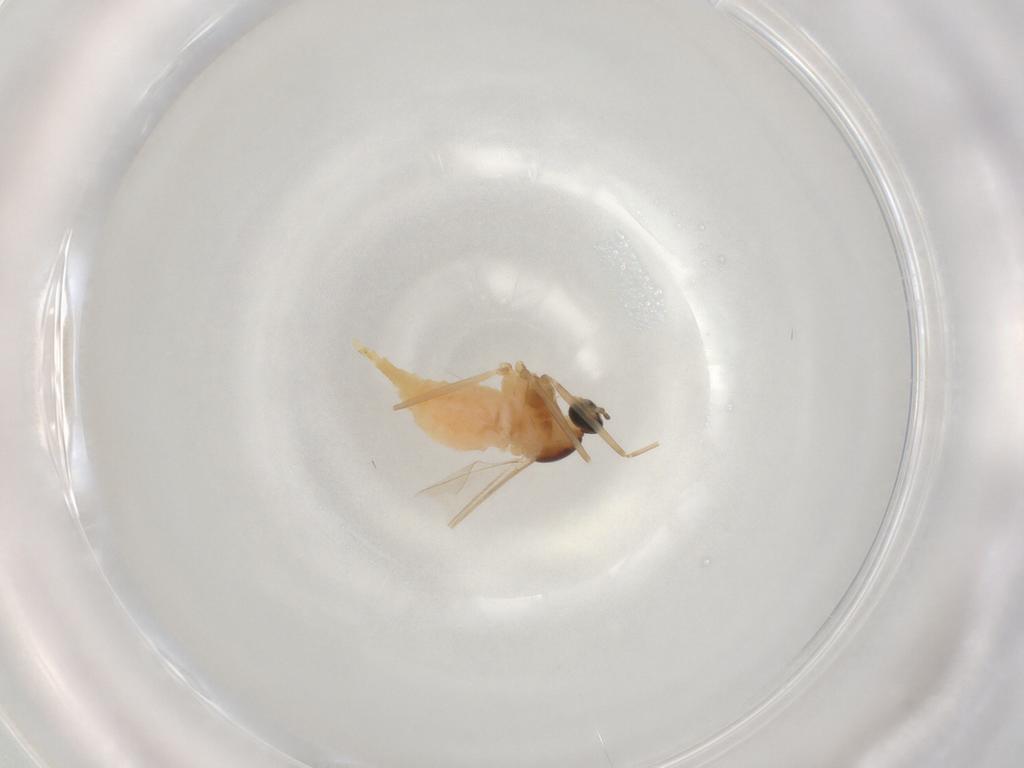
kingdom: Animalia
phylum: Arthropoda
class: Insecta
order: Diptera
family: Cecidomyiidae
